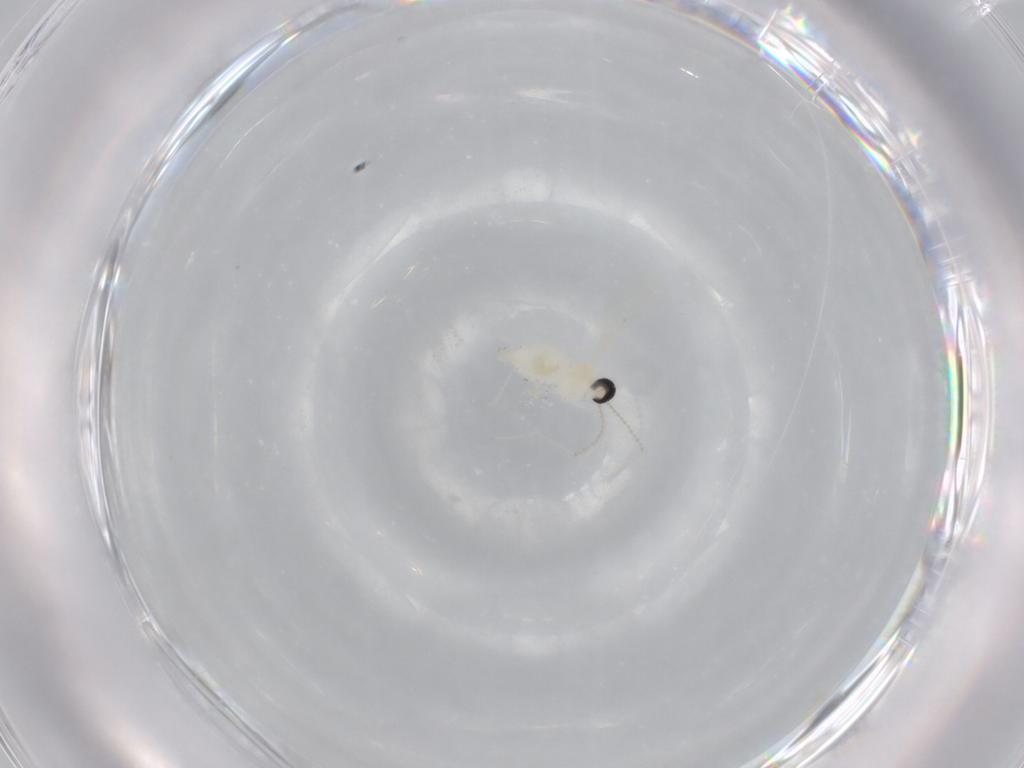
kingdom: Animalia
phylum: Arthropoda
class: Insecta
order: Diptera
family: Cecidomyiidae
